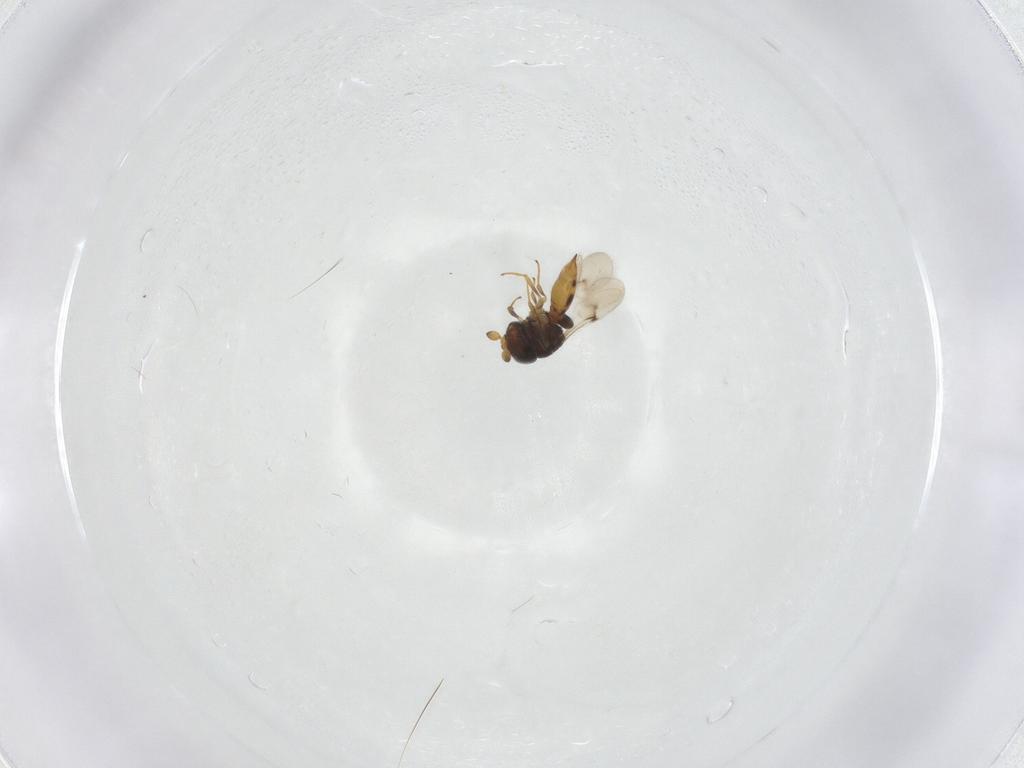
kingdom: Animalia
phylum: Arthropoda
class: Insecta
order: Hymenoptera
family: Scelionidae
